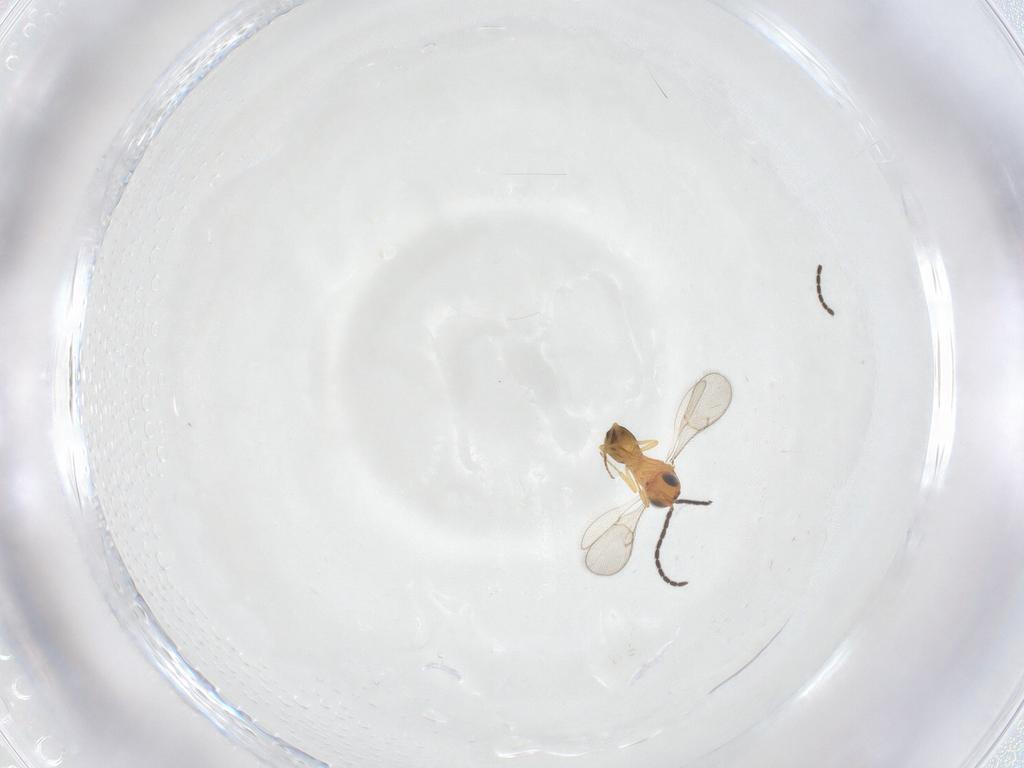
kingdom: Animalia
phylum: Arthropoda
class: Insecta
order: Hymenoptera
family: Scelionidae
